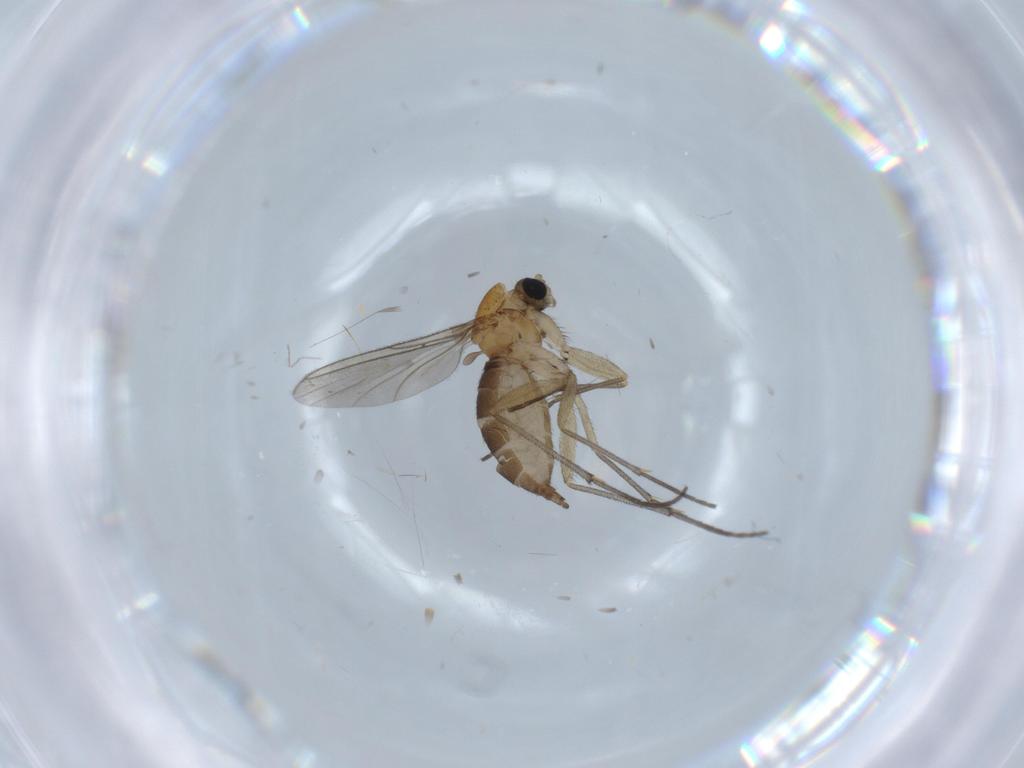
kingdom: Animalia
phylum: Arthropoda
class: Insecta
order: Diptera
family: Sciaridae
